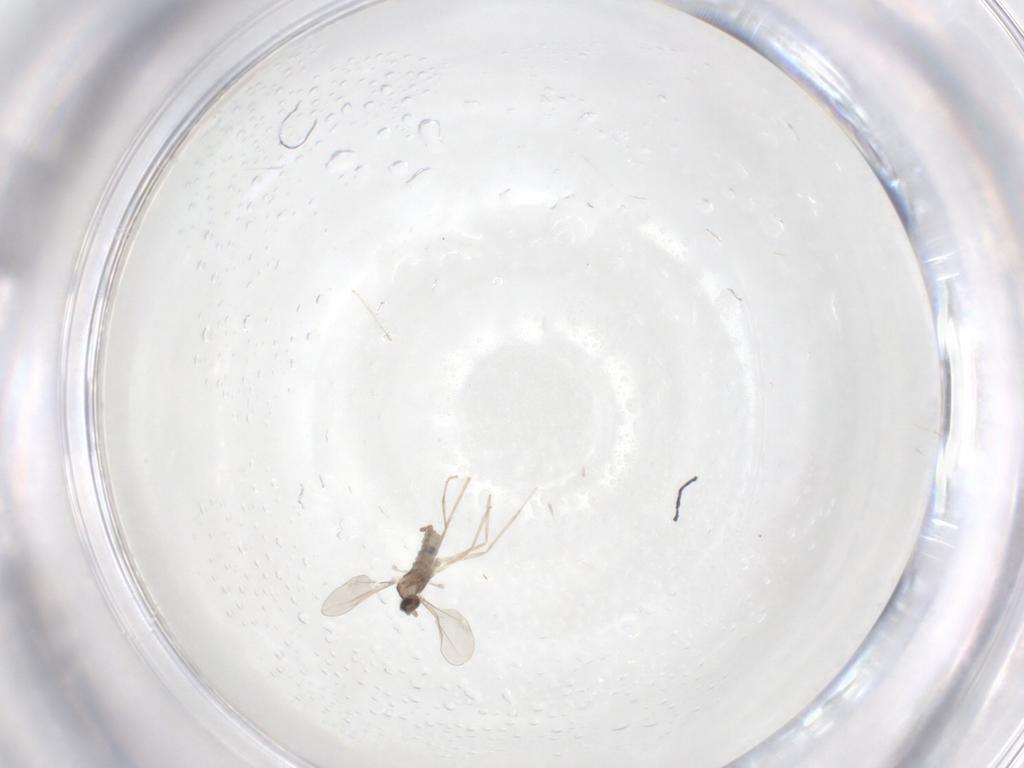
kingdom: Animalia
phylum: Arthropoda
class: Insecta
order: Diptera
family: Cecidomyiidae
